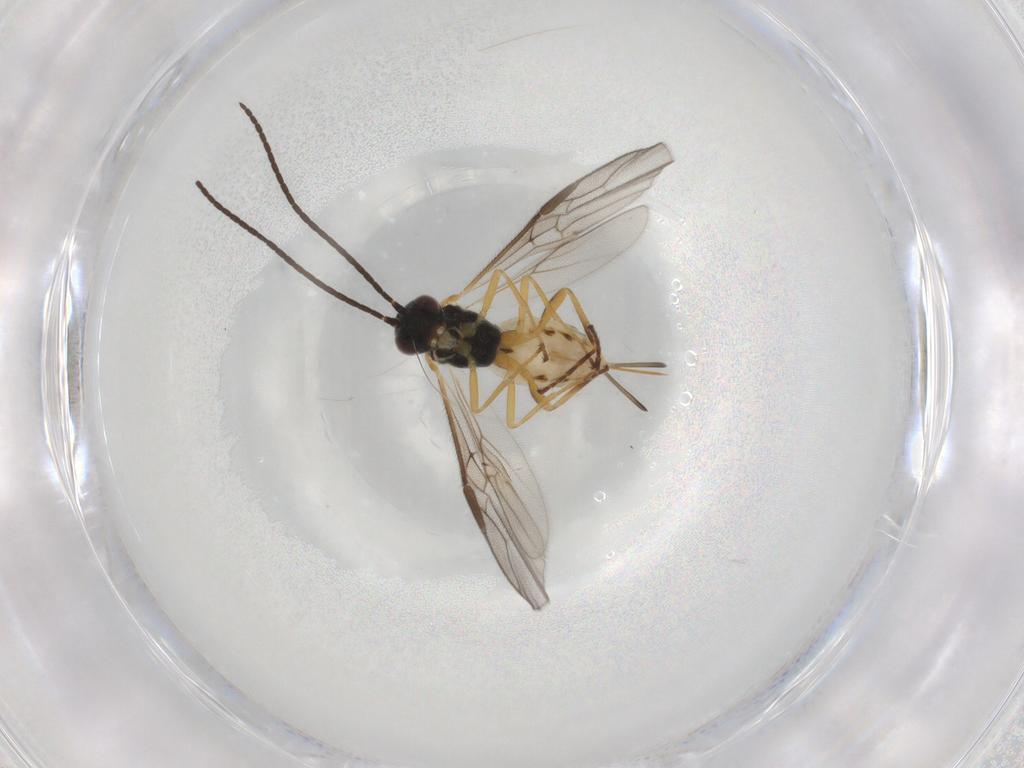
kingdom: Animalia
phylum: Arthropoda
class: Insecta
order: Hymenoptera
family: Braconidae
